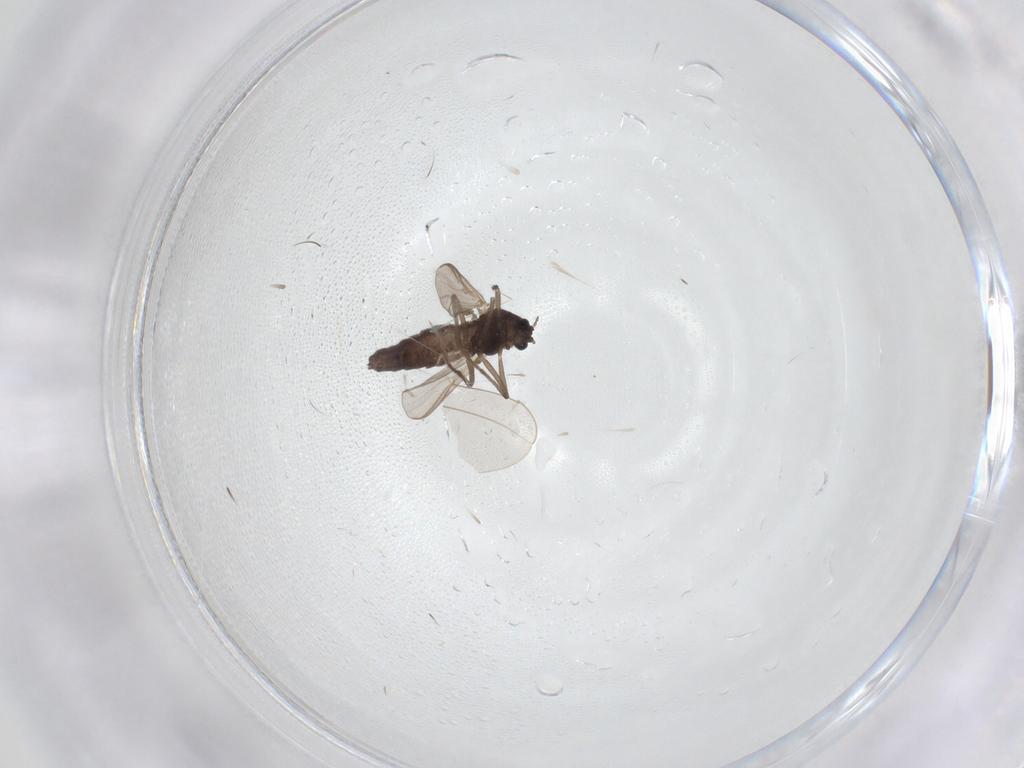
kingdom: Animalia
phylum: Arthropoda
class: Insecta
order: Diptera
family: Chironomidae
